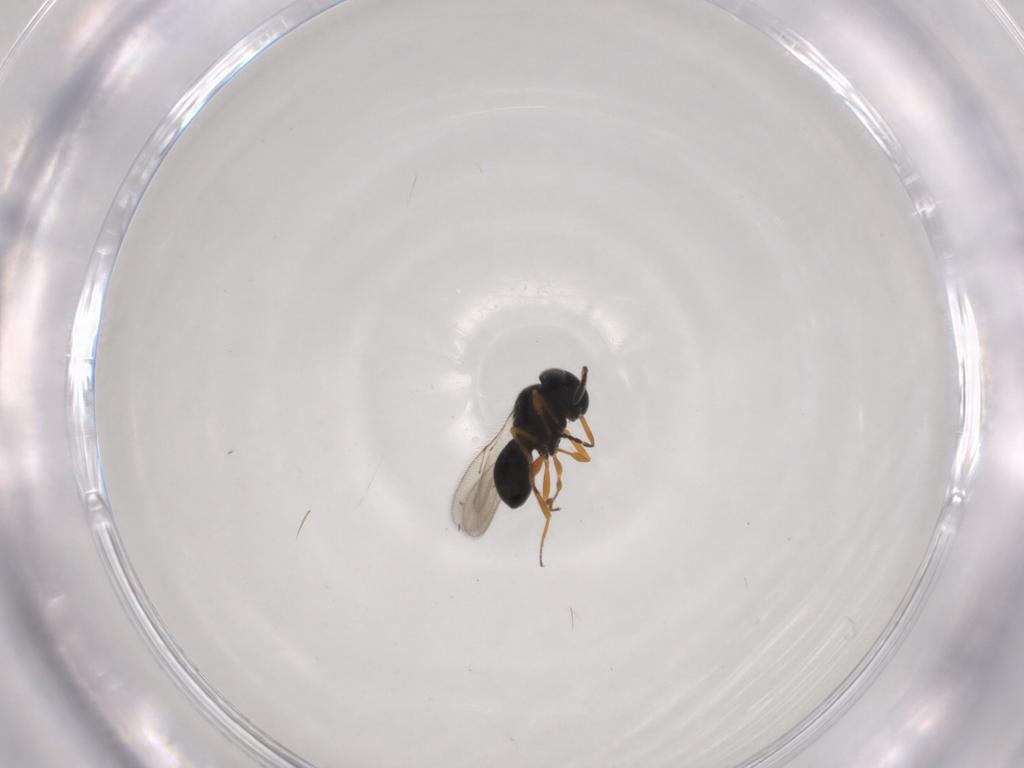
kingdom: Animalia
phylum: Arthropoda
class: Insecta
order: Hymenoptera
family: Scelionidae
